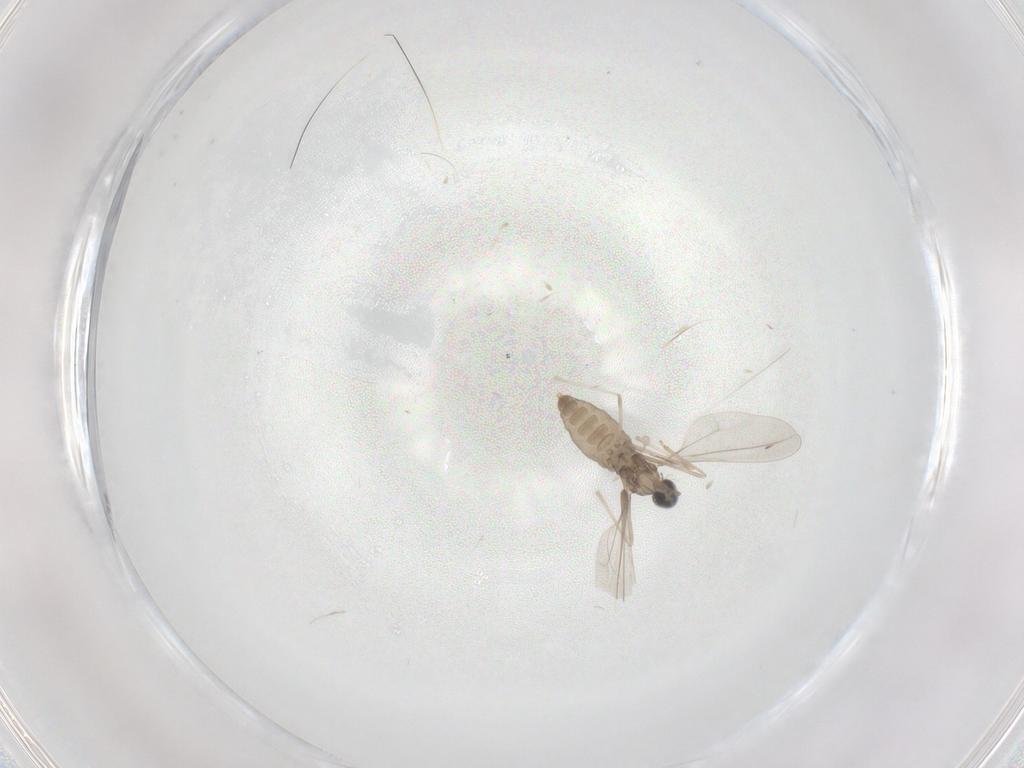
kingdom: Animalia
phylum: Arthropoda
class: Insecta
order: Diptera
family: Cecidomyiidae
